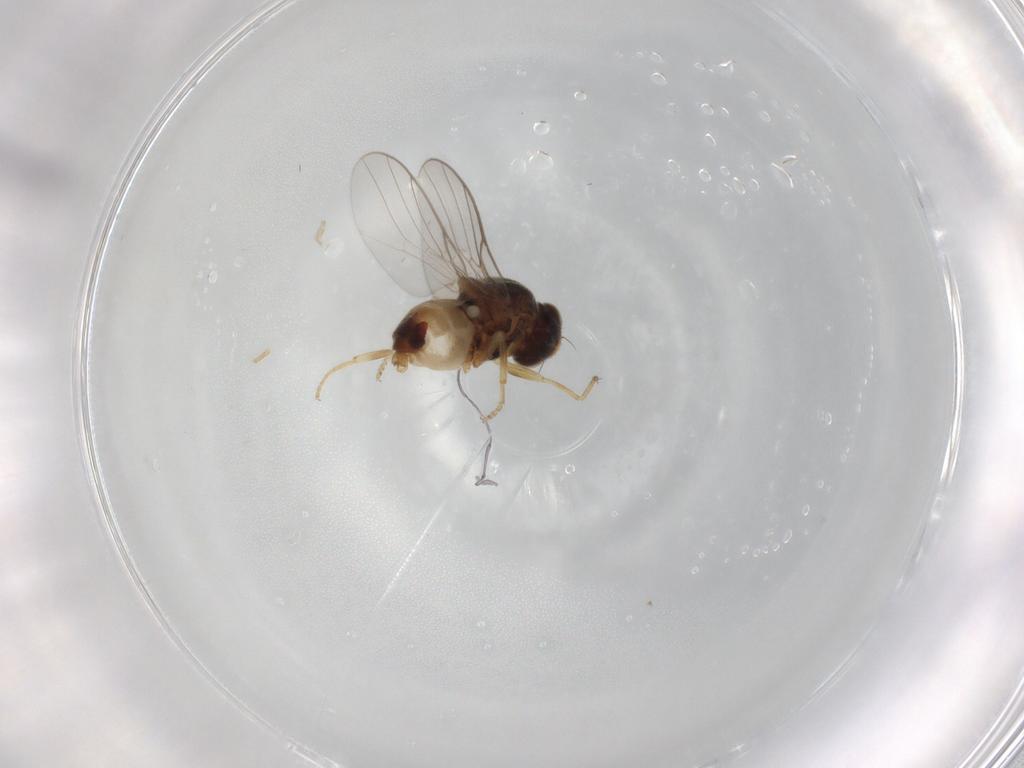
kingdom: Animalia
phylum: Arthropoda
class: Insecta
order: Diptera
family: Chloropidae
